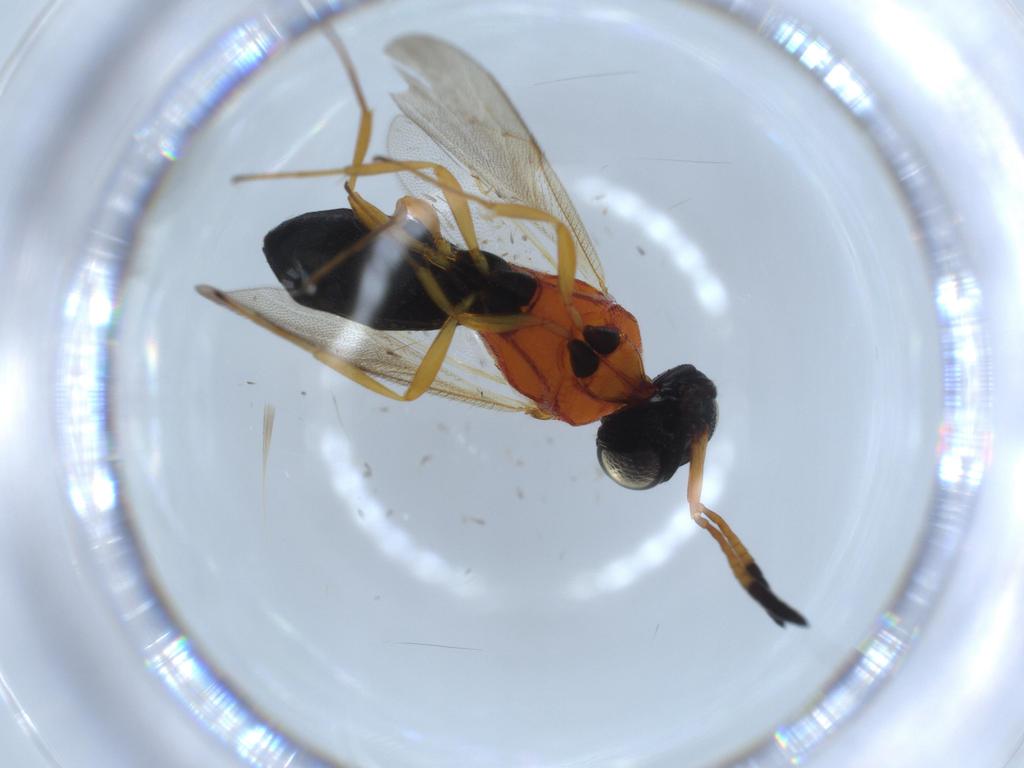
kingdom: Animalia
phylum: Arthropoda
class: Insecta
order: Hymenoptera
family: Scelionidae
